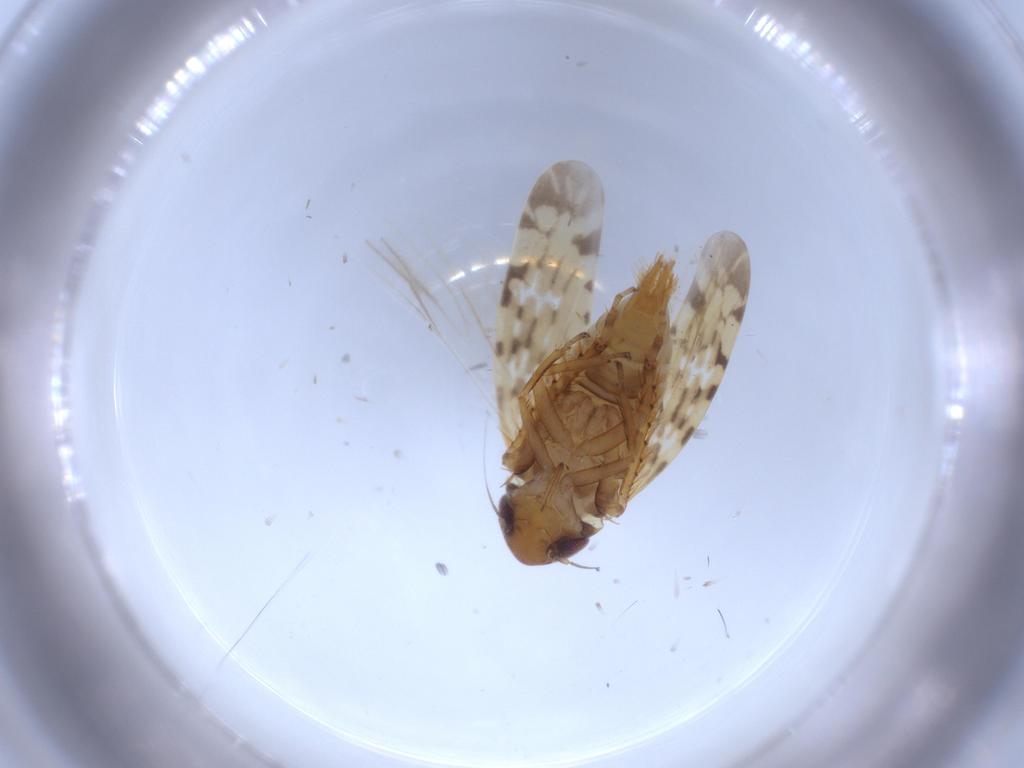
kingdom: Animalia
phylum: Arthropoda
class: Insecta
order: Hemiptera
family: Cicadellidae
